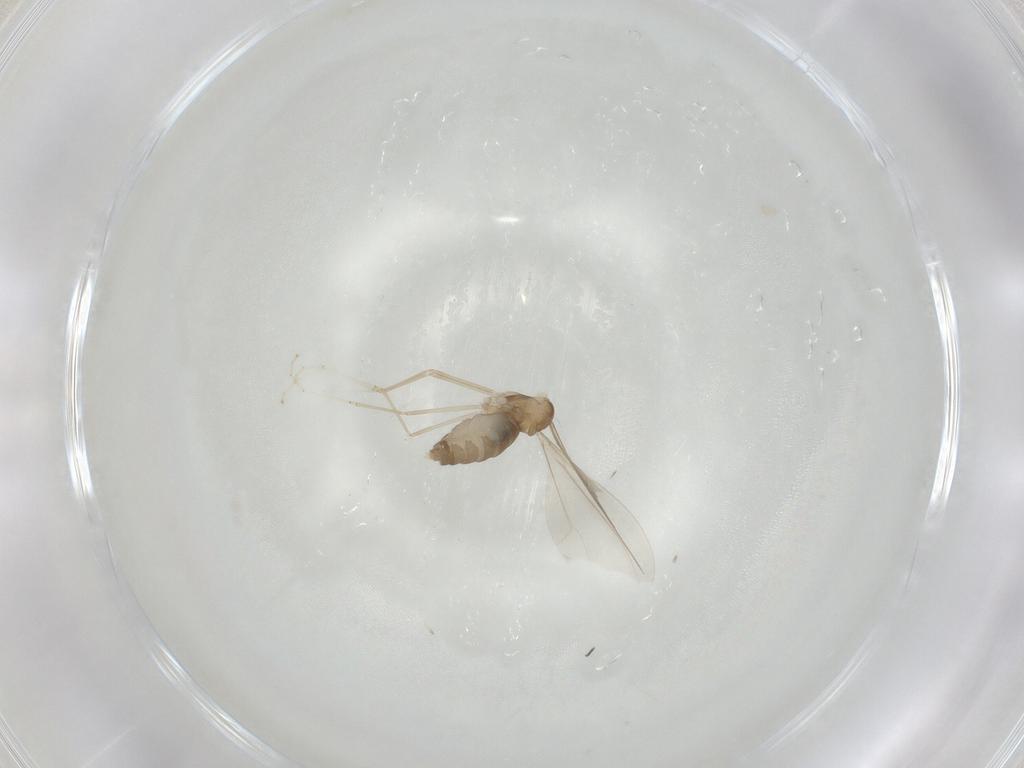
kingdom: Animalia
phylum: Arthropoda
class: Insecta
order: Diptera
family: Cecidomyiidae
